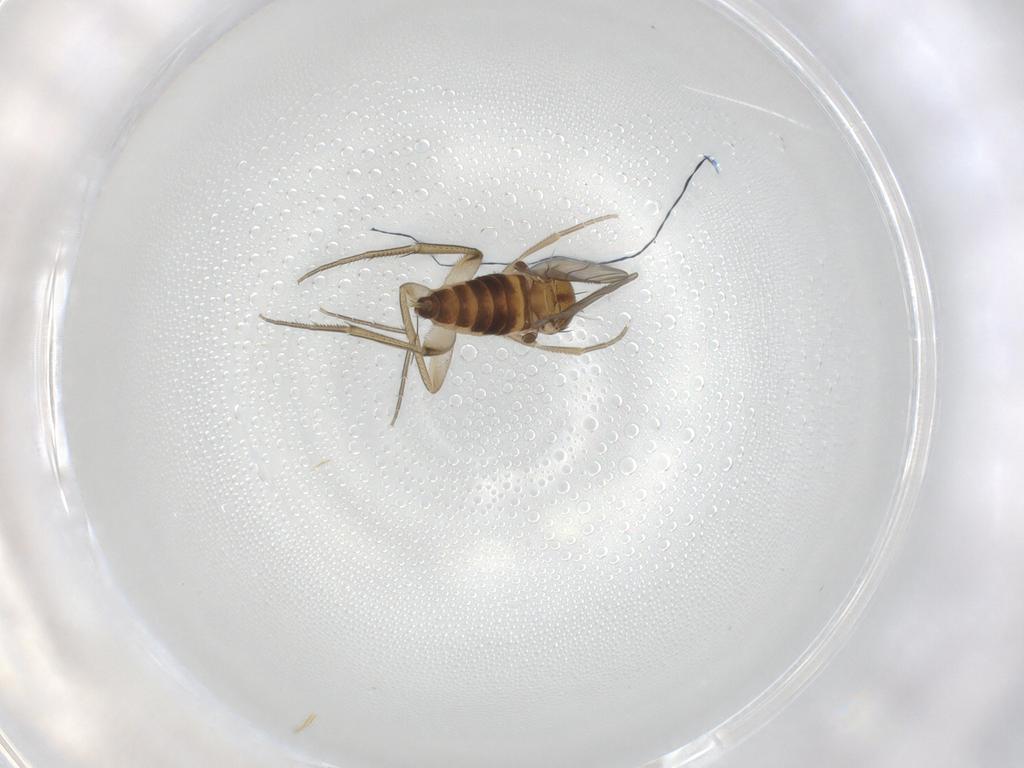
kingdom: Animalia
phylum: Arthropoda
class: Insecta
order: Diptera
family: Phoridae
